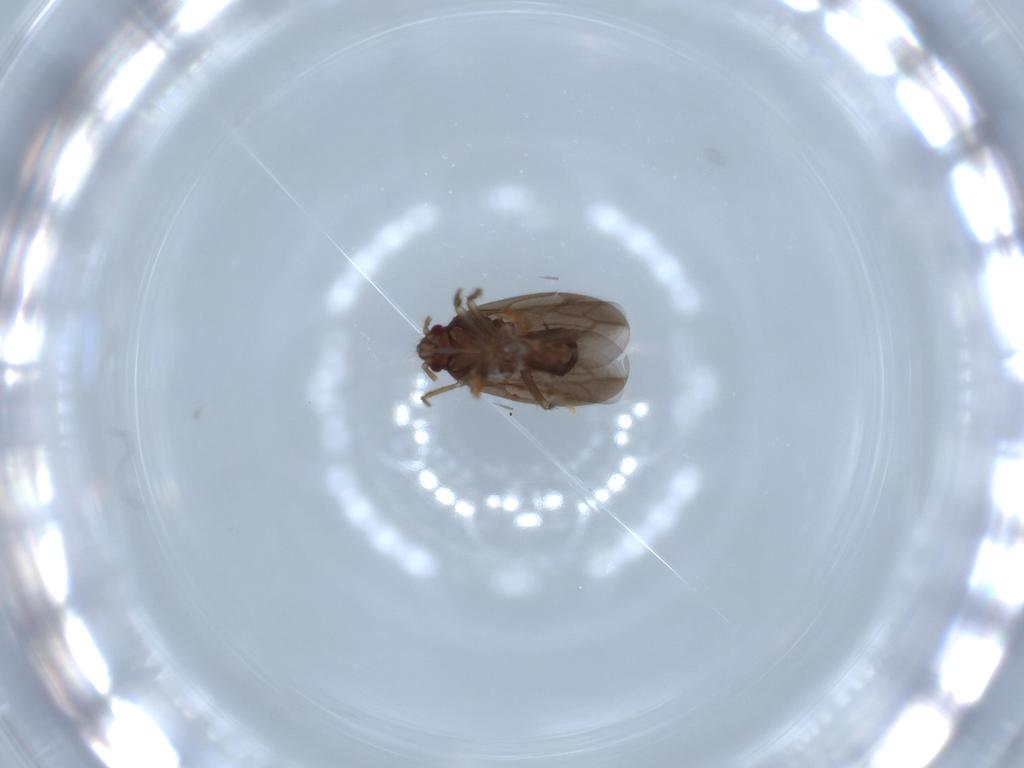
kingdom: Animalia
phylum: Arthropoda
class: Insecta
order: Hemiptera
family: Ceratocombidae
